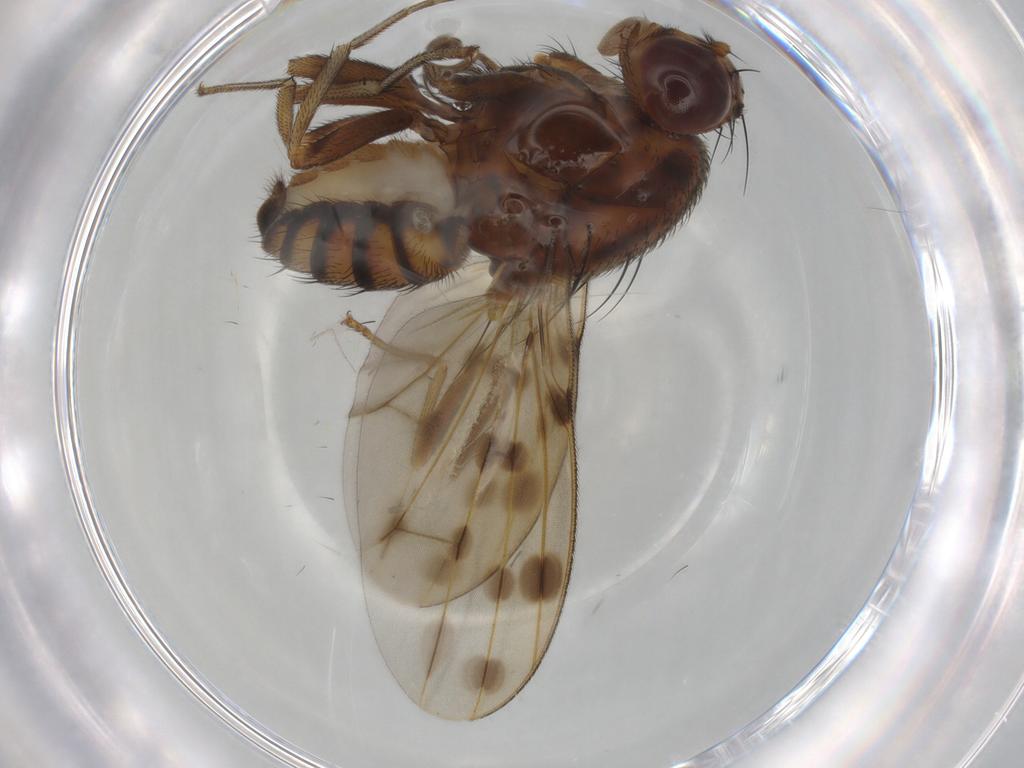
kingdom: Animalia
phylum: Arthropoda
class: Insecta
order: Diptera
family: Lauxaniidae
